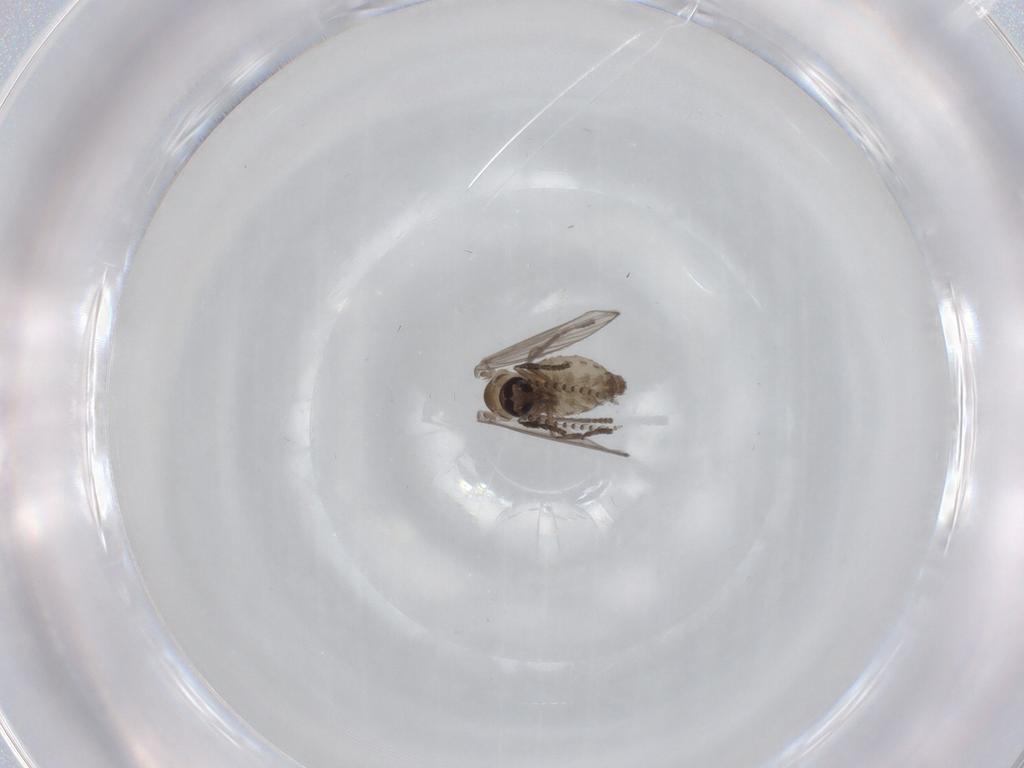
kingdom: Animalia
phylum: Arthropoda
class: Insecta
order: Diptera
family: Psychodidae
